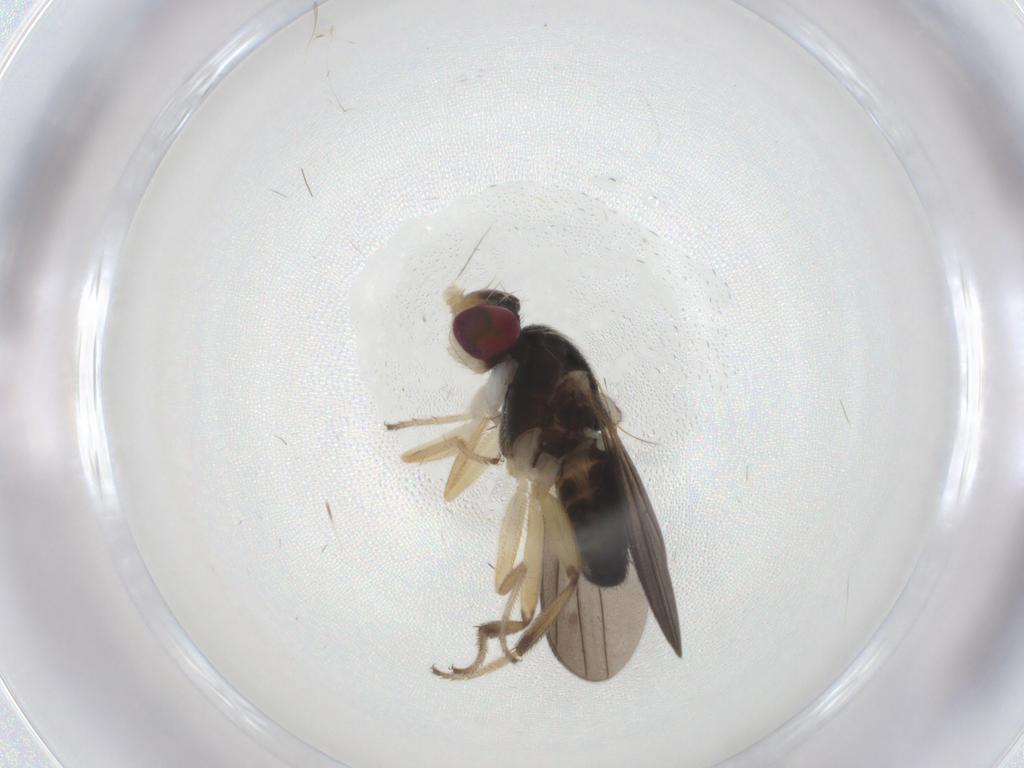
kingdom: Animalia
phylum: Arthropoda
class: Insecta
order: Diptera
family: Clusiidae
